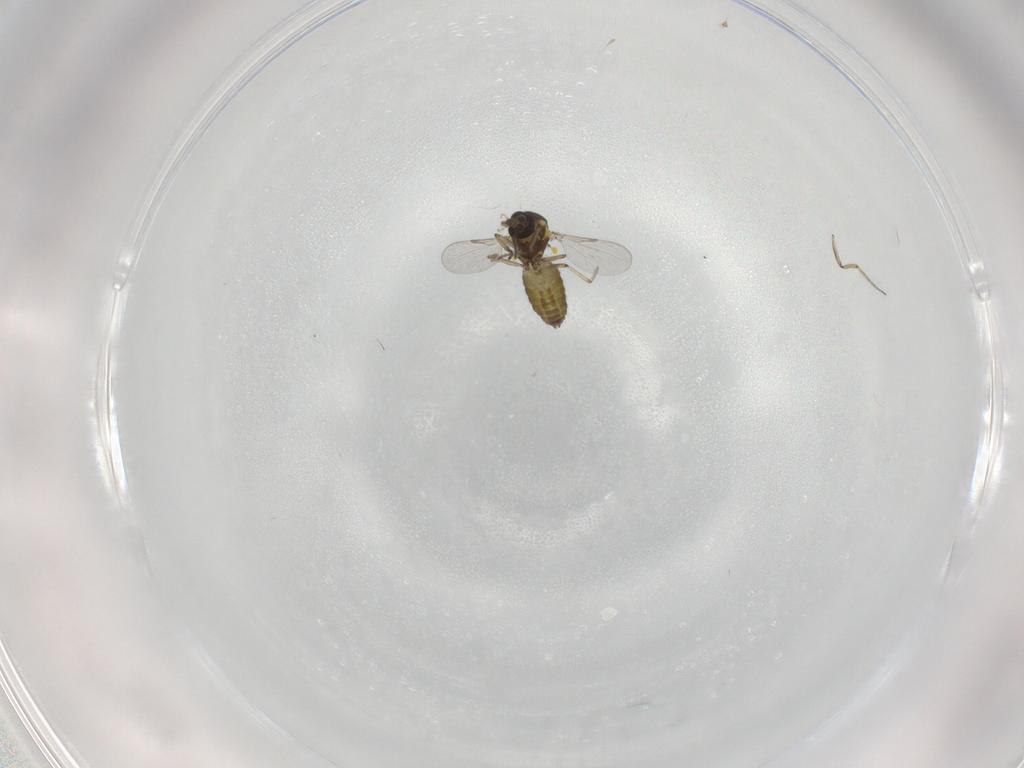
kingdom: Animalia
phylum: Arthropoda
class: Insecta
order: Diptera
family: Ceratopogonidae
